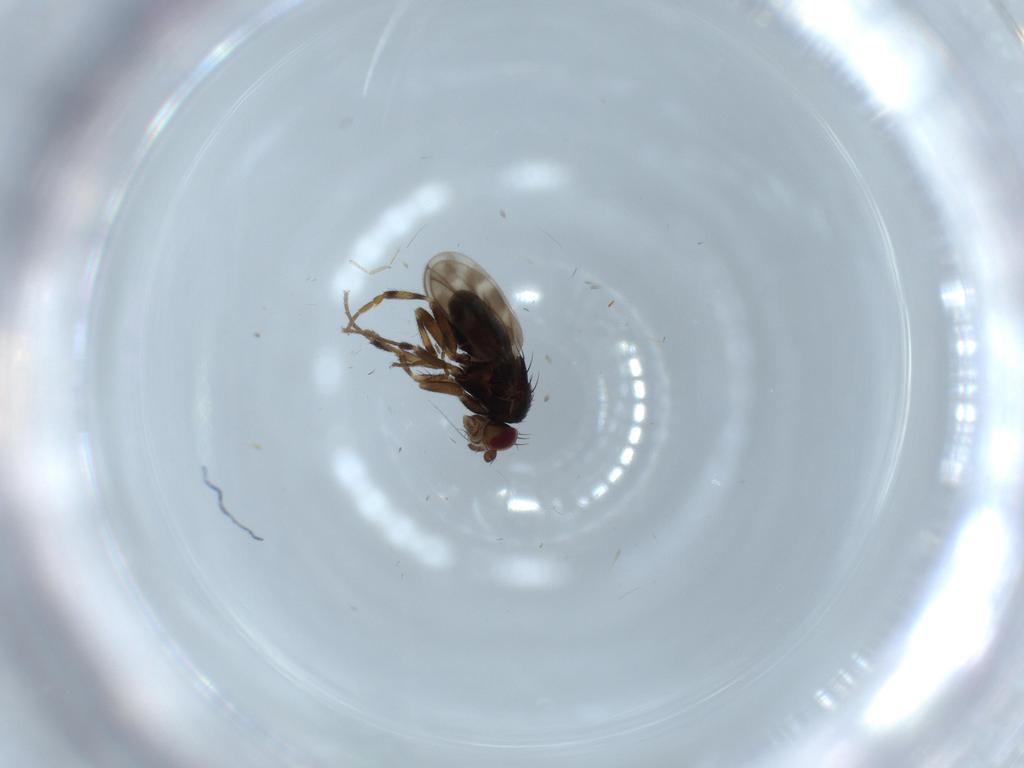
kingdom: Animalia
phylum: Arthropoda
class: Insecta
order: Diptera
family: Sphaeroceridae
